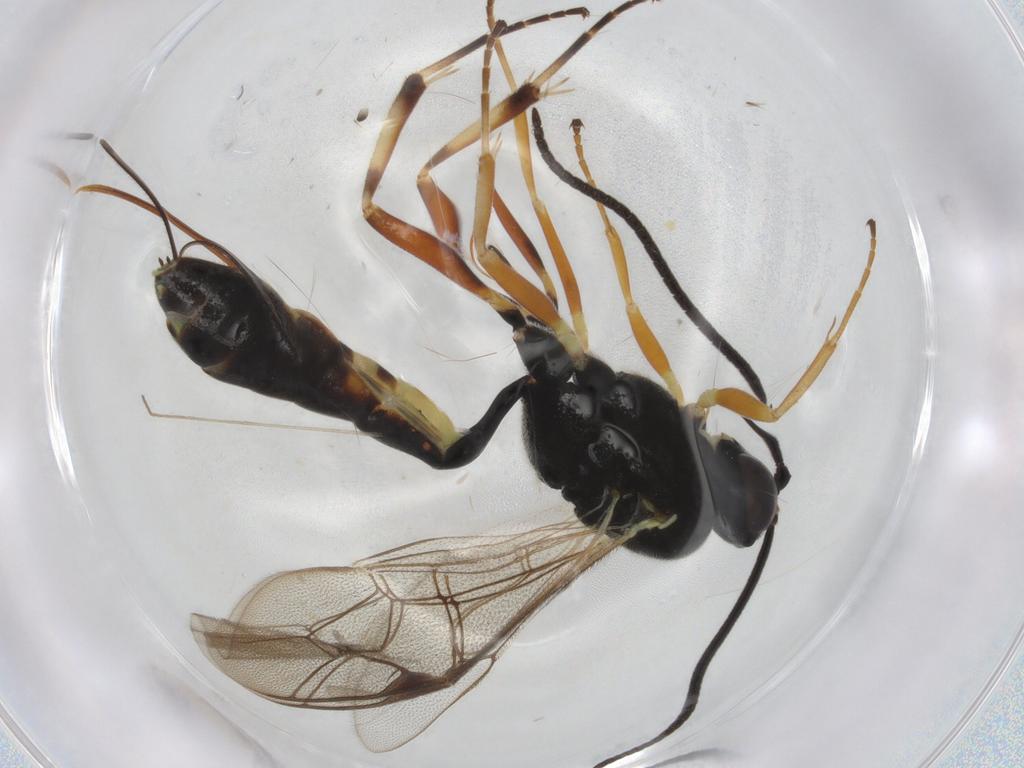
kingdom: Animalia
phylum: Arthropoda
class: Insecta
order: Hymenoptera
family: Ichneumonidae
